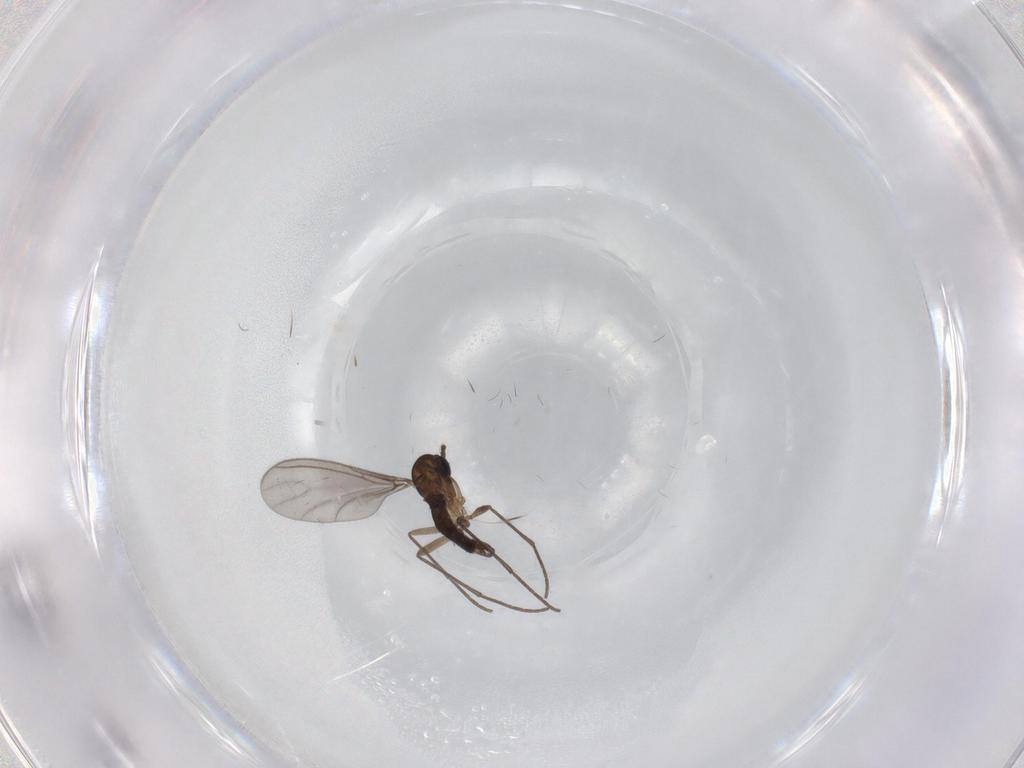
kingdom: Animalia
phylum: Arthropoda
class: Insecta
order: Diptera
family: Sciaridae
